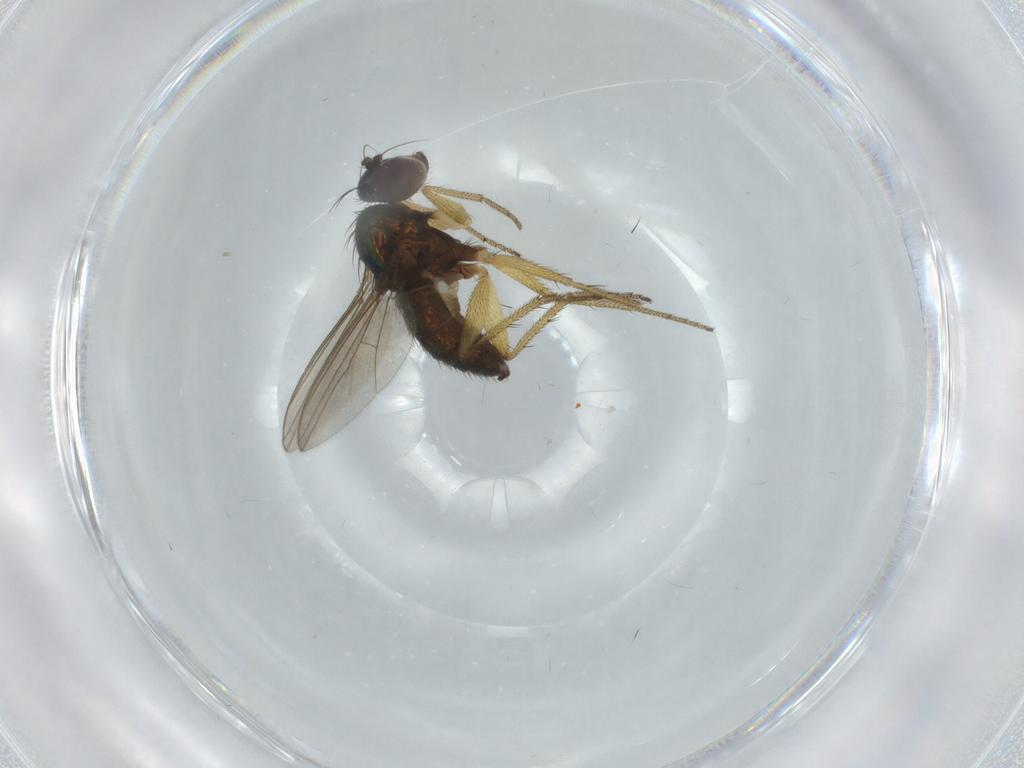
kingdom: Animalia
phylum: Arthropoda
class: Insecta
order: Diptera
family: Dolichopodidae
